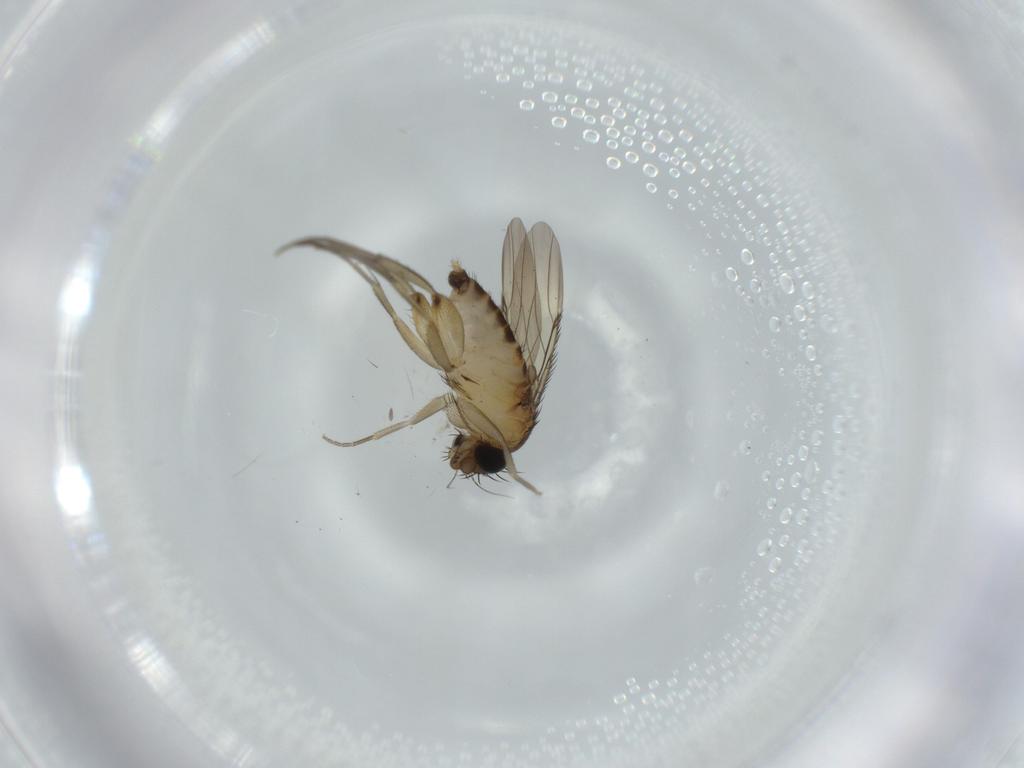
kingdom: Animalia
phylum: Arthropoda
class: Insecta
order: Diptera
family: Phoridae
